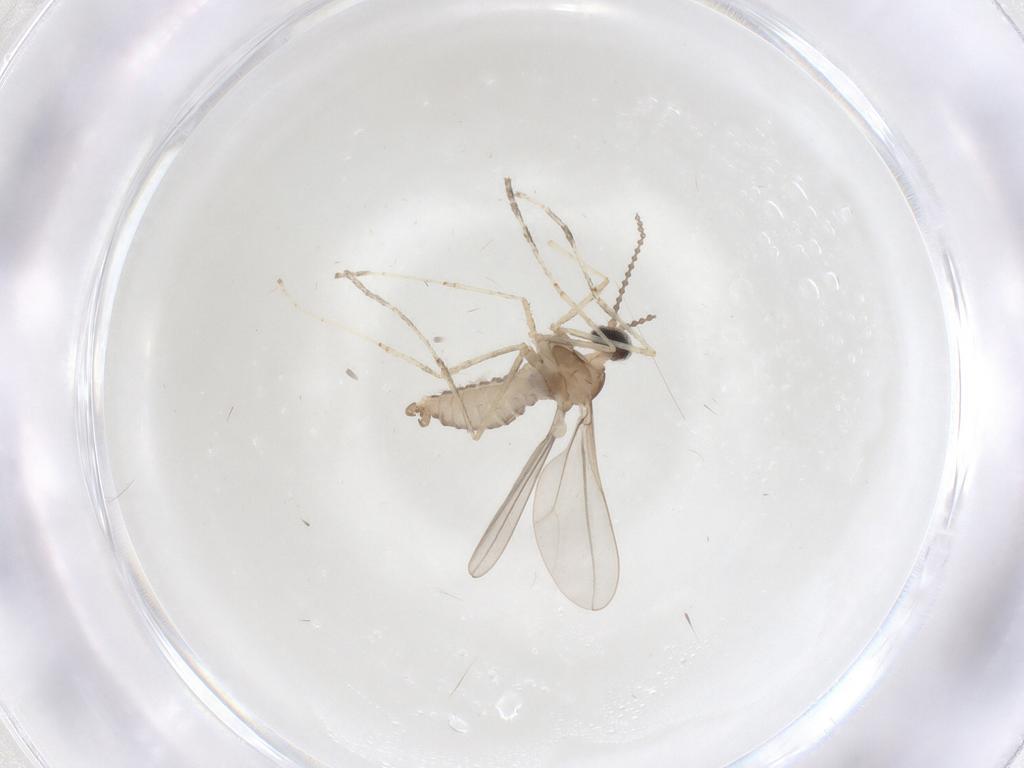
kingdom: Animalia
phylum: Arthropoda
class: Insecta
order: Diptera
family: Cecidomyiidae
